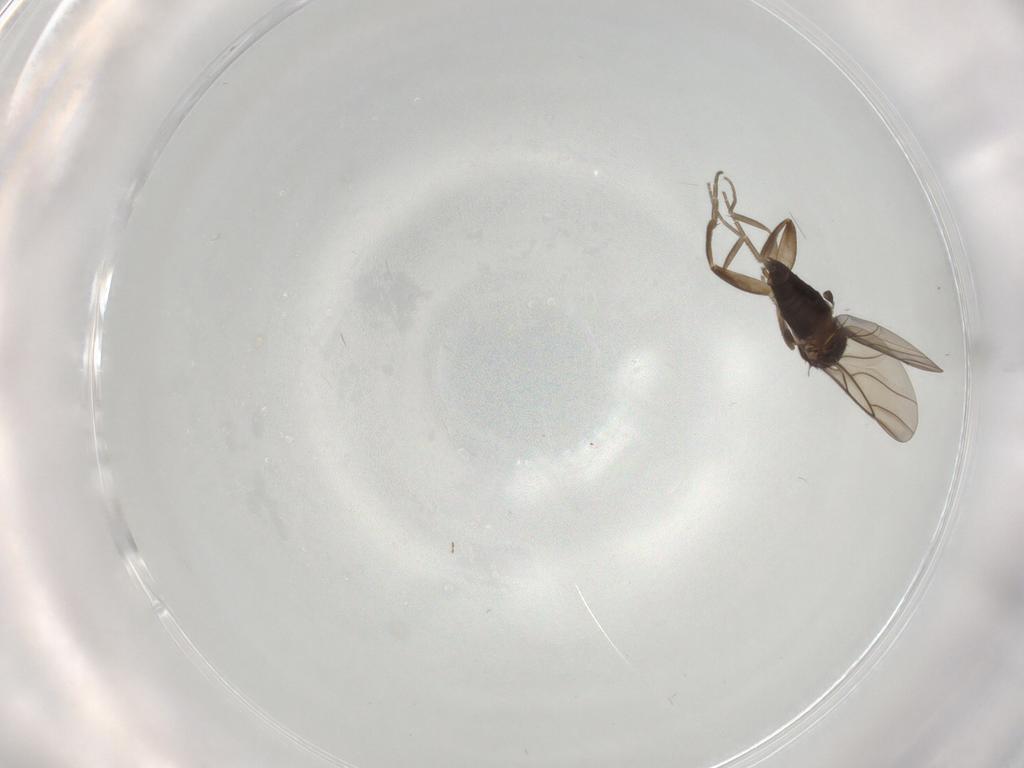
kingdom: Animalia
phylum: Arthropoda
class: Insecta
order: Diptera
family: Phoridae
